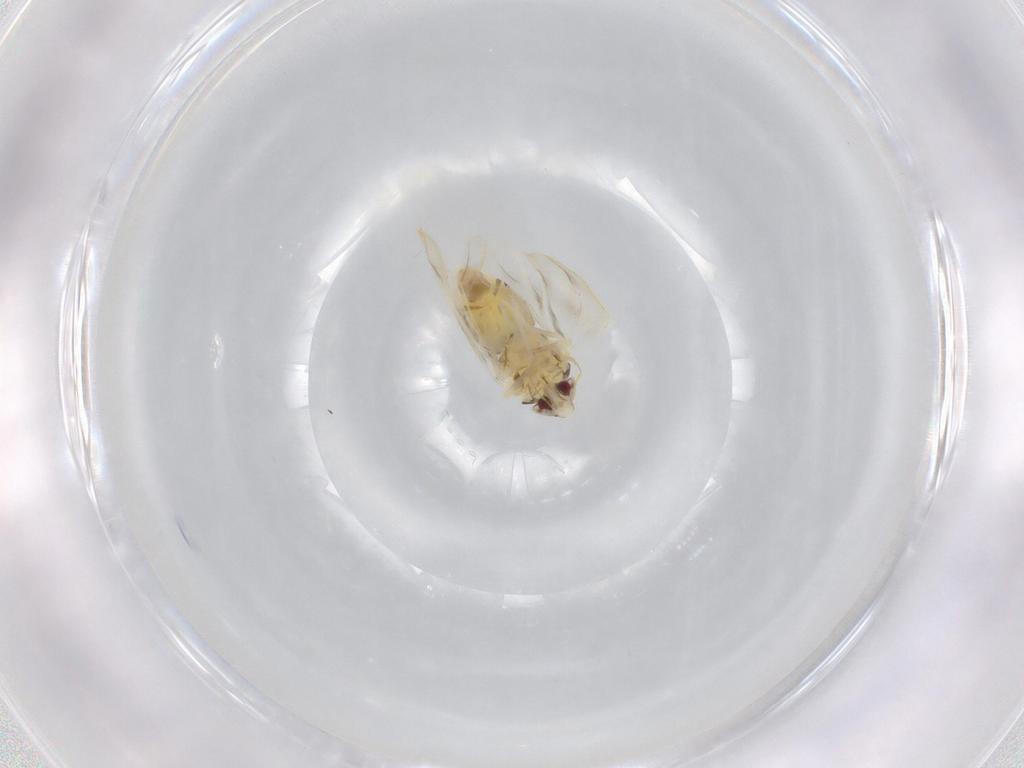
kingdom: Animalia
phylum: Arthropoda
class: Insecta
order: Hemiptera
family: Aleyrodidae
